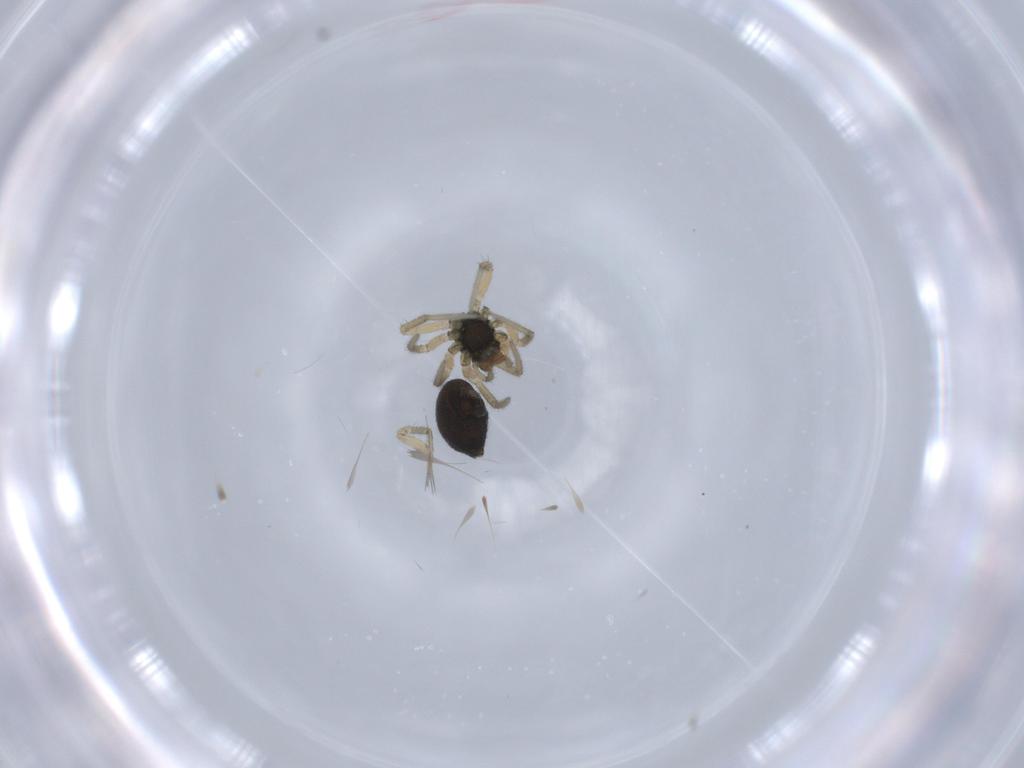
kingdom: Animalia
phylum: Arthropoda
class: Arachnida
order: Araneae
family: Linyphiidae
